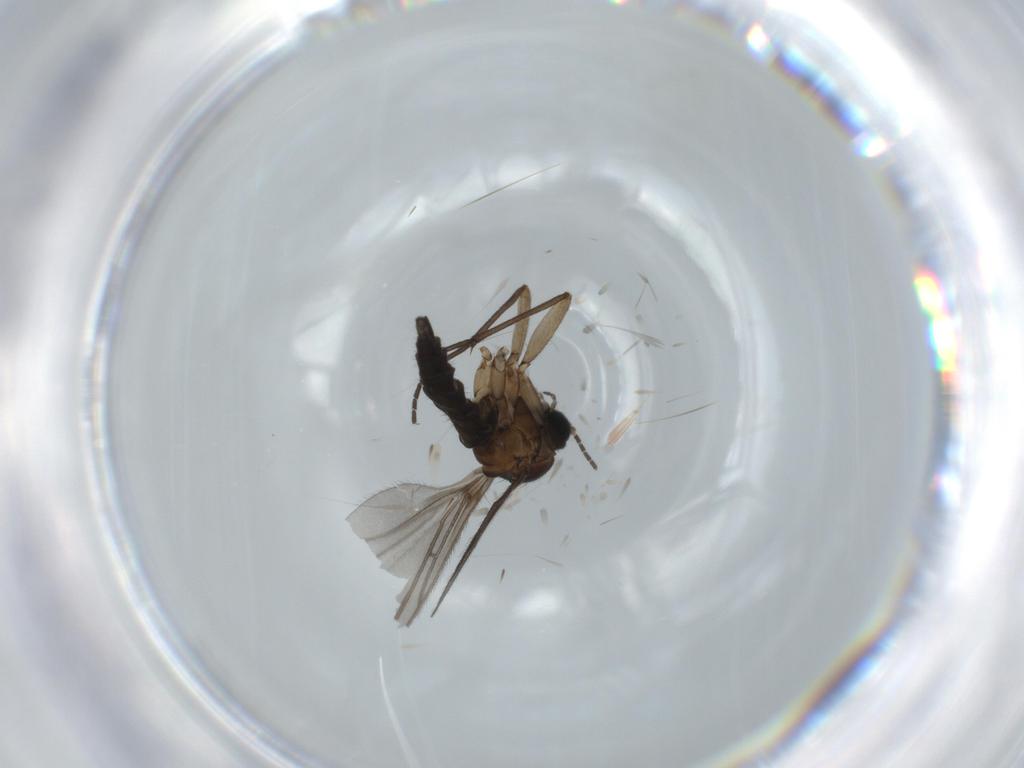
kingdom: Animalia
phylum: Arthropoda
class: Insecta
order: Diptera
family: Sciaridae
